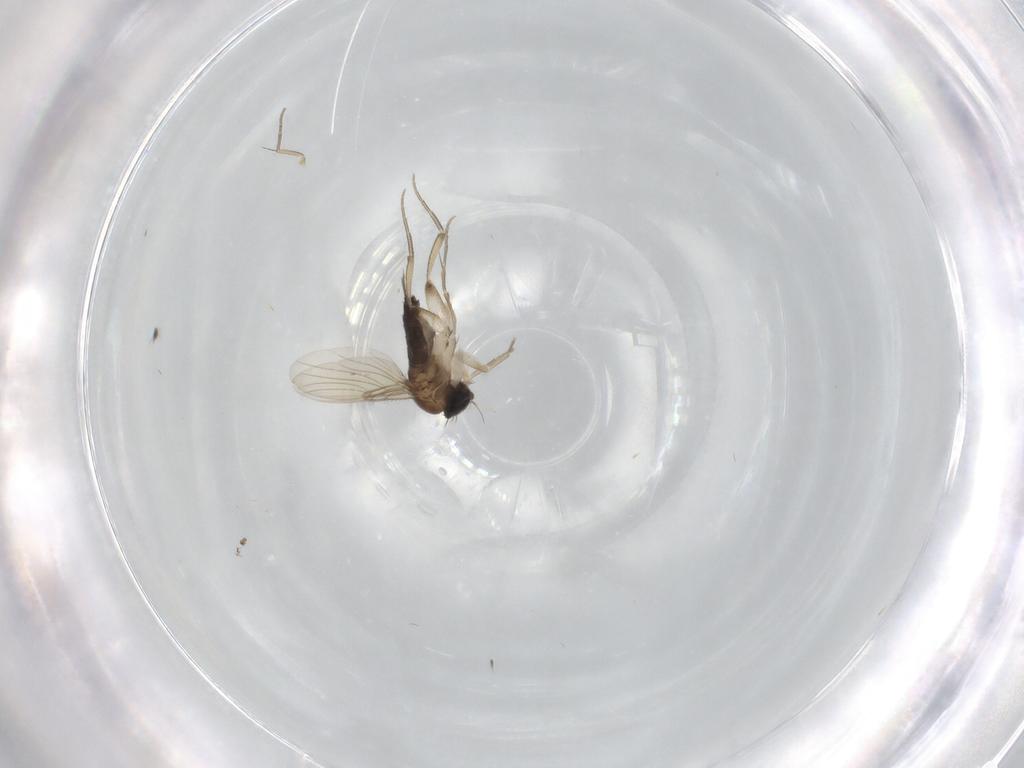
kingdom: Animalia
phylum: Arthropoda
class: Insecta
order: Diptera
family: Phoridae
